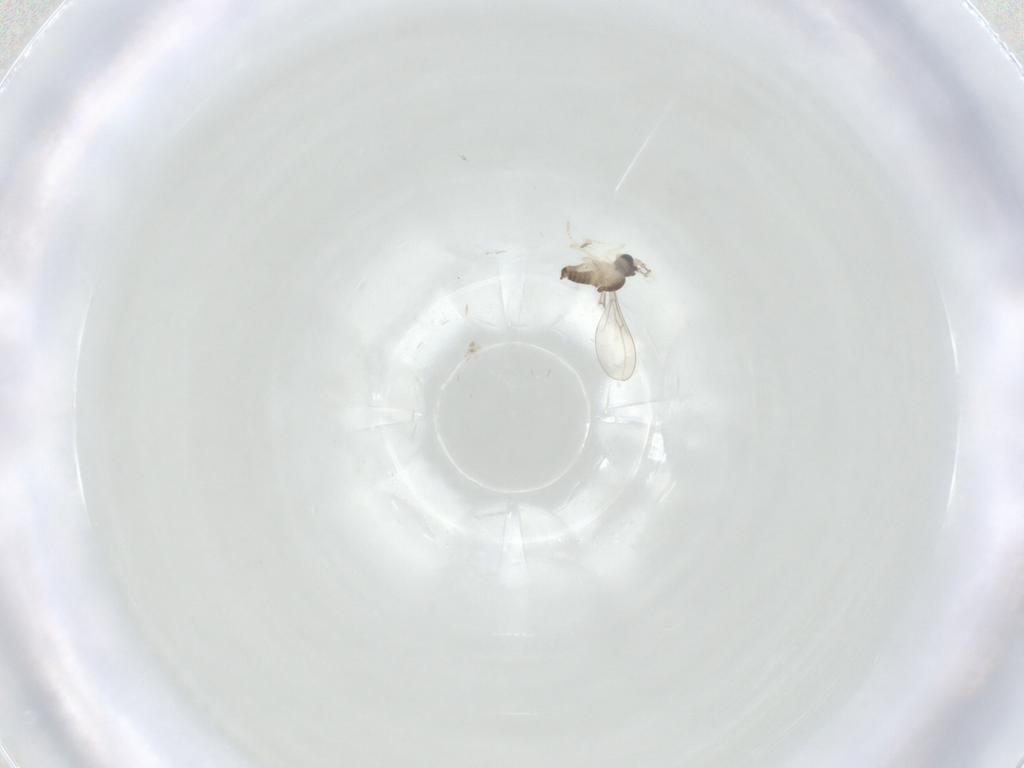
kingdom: Animalia
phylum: Arthropoda
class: Insecta
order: Diptera
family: Cecidomyiidae
